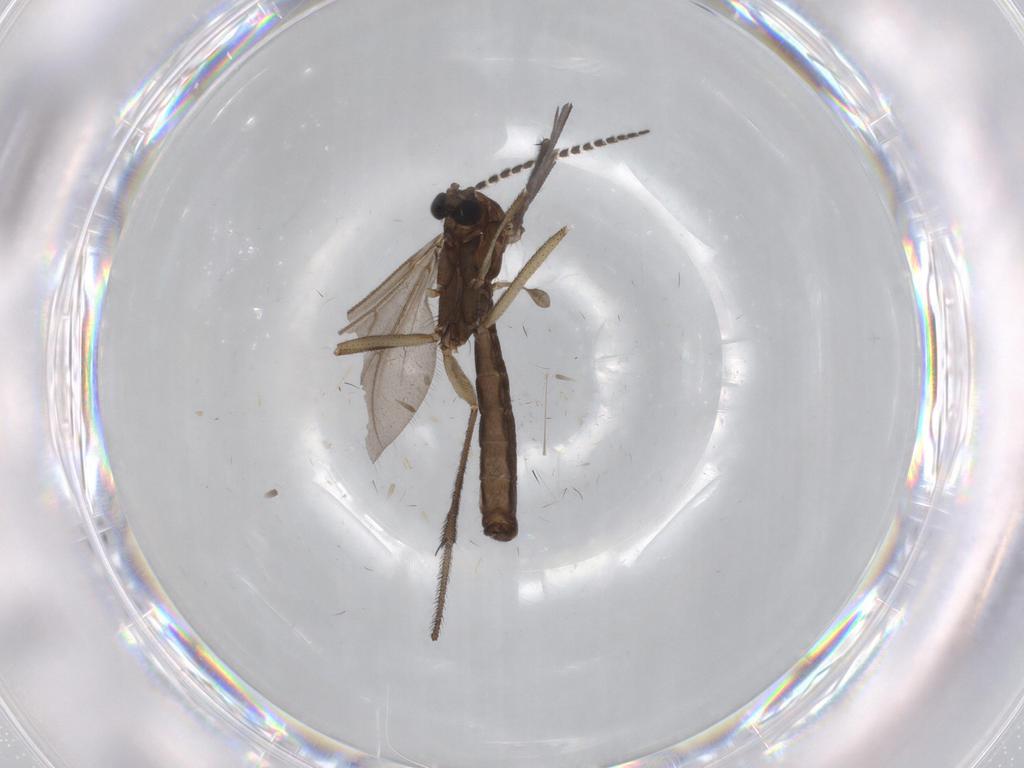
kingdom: Animalia
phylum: Arthropoda
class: Insecta
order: Diptera
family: Ditomyiidae
